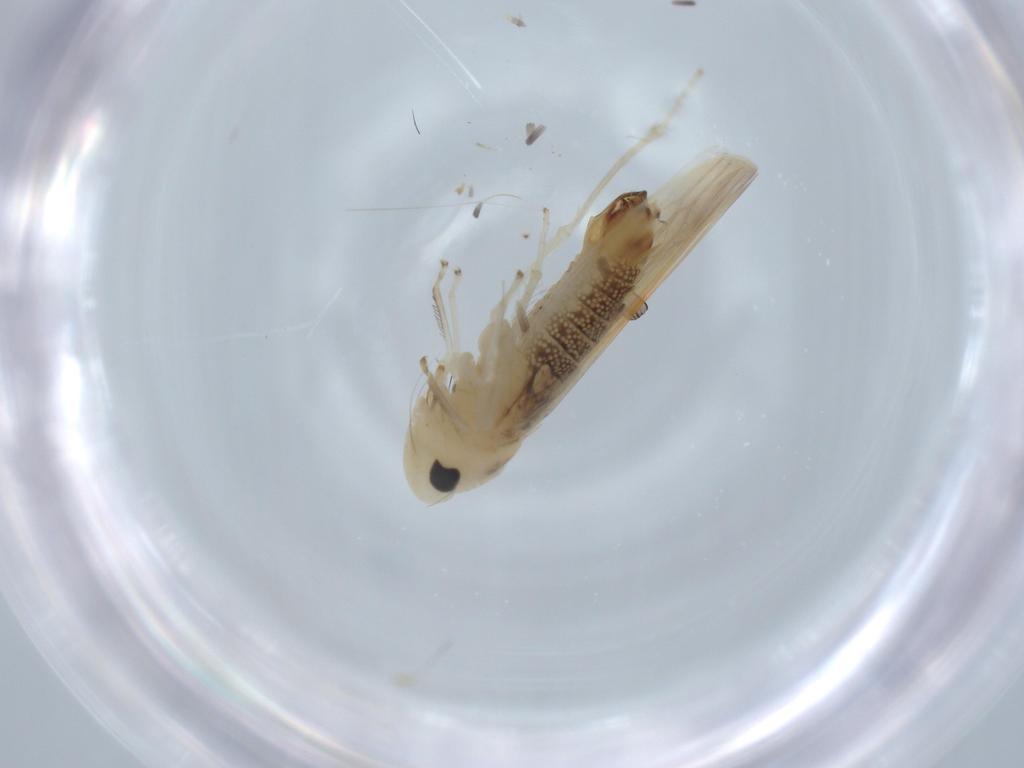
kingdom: Animalia
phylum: Arthropoda
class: Insecta
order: Hemiptera
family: Cicadellidae
